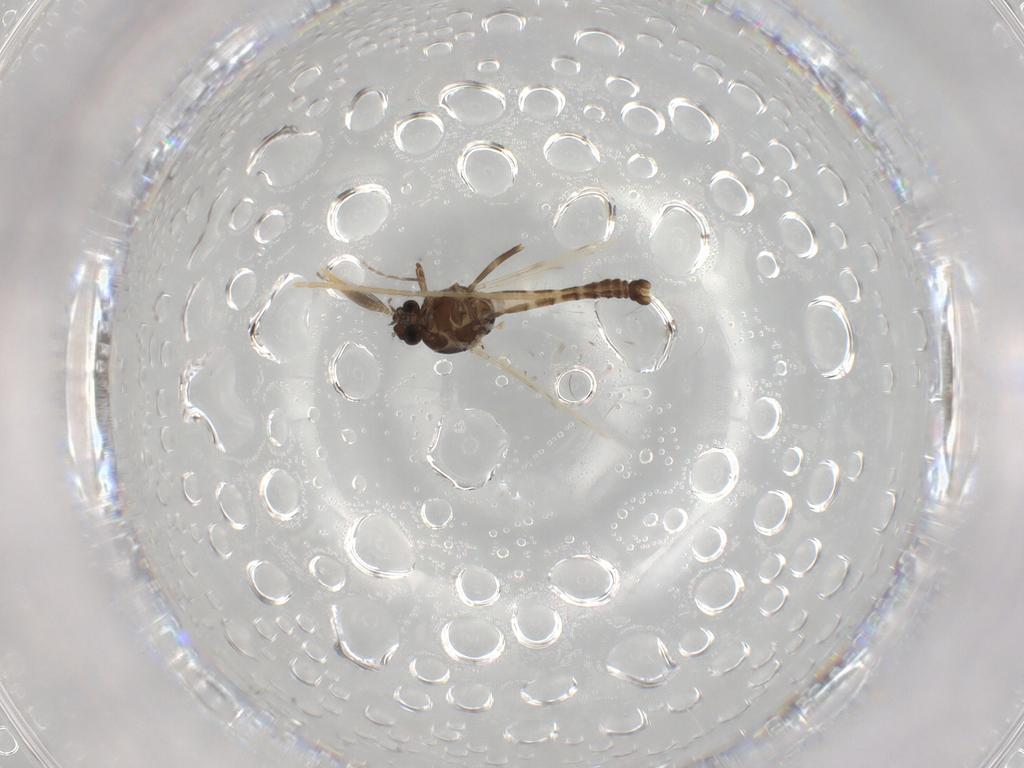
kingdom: Animalia
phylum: Arthropoda
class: Insecta
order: Diptera
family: Ceratopogonidae
